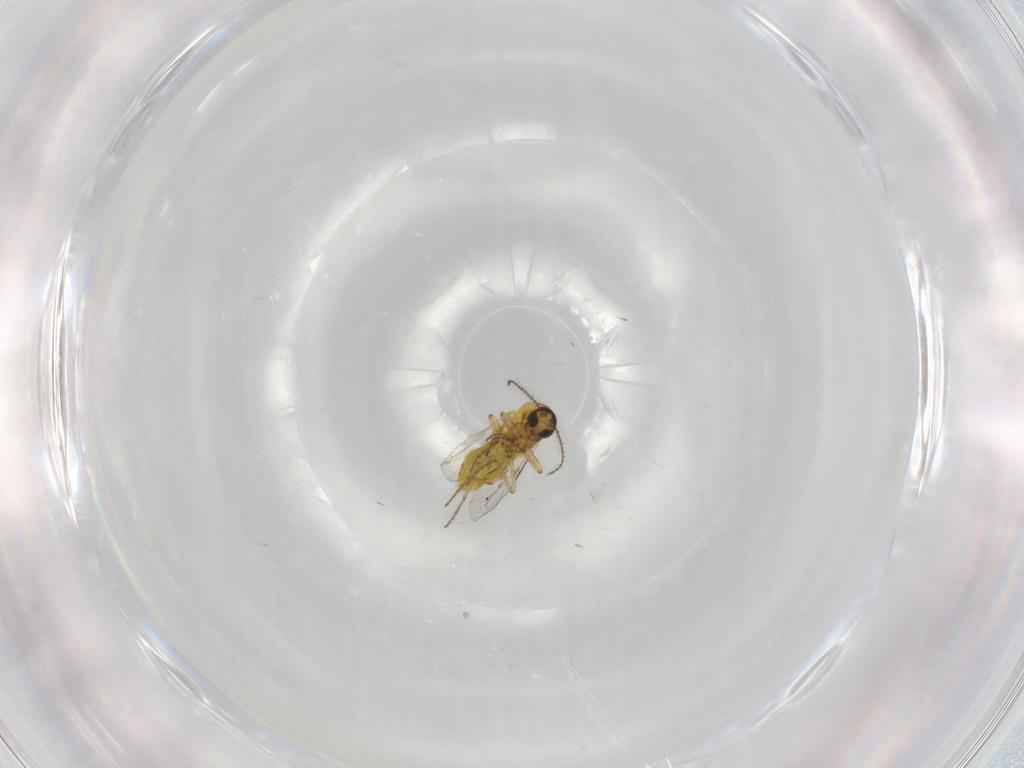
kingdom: Animalia
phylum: Arthropoda
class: Insecta
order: Diptera
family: Ceratopogonidae
